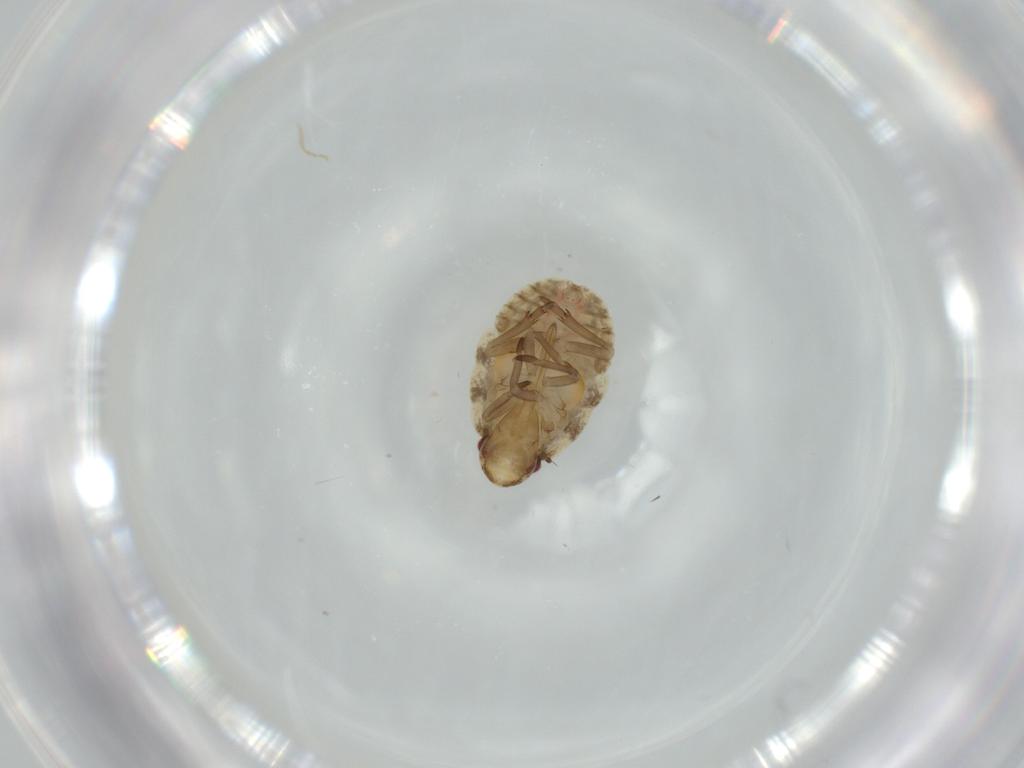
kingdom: Animalia
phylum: Arthropoda
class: Insecta
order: Hemiptera
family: Flatidae
